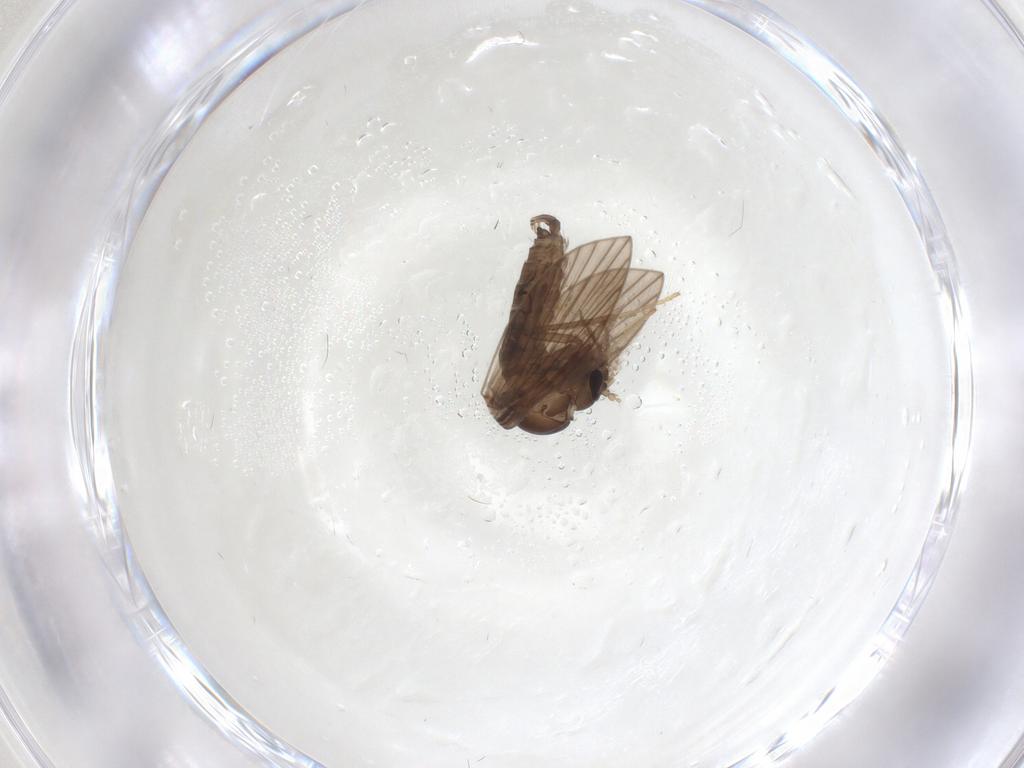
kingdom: Animalia
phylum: Arthropoda
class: Insecta
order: Diptera
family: Psychodidae
